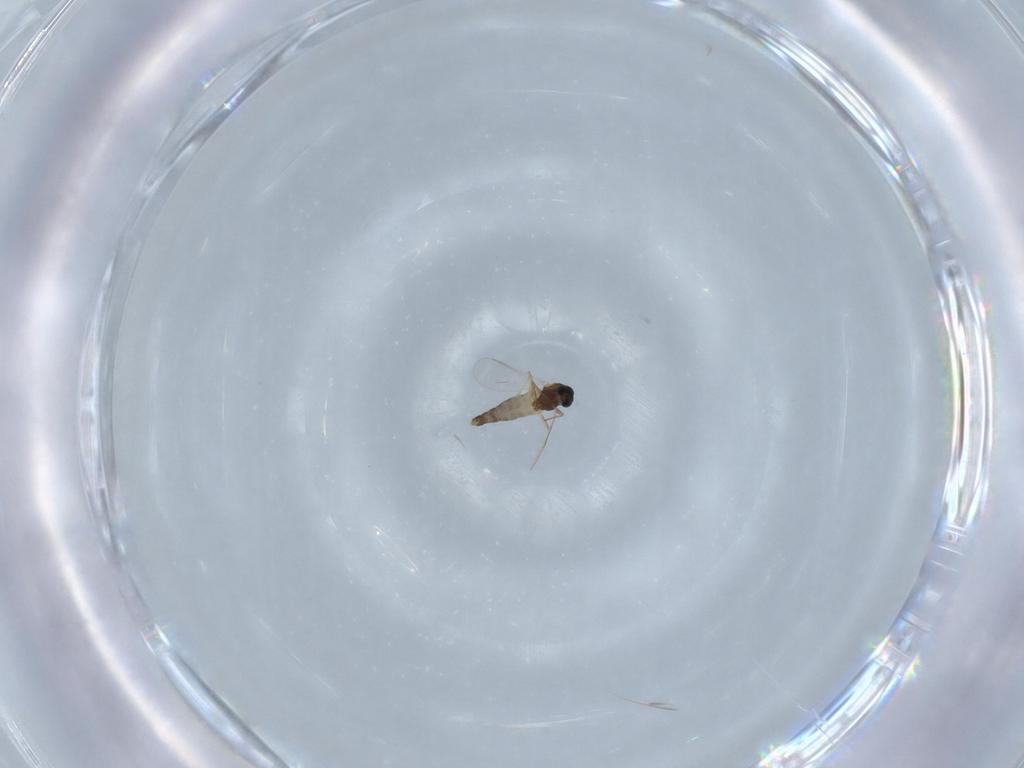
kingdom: Animalia
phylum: Arthropoda
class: Insecta
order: Diptera
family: Chironomidae
